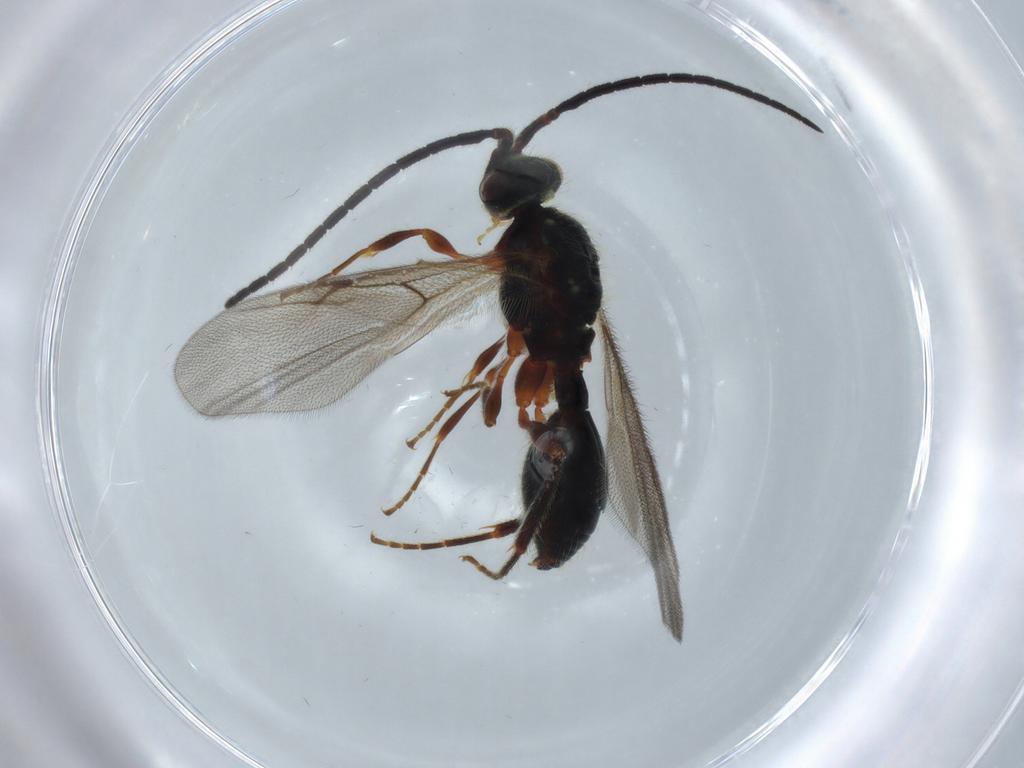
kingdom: Animalia
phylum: Arthropoda
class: Insecta
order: Hymenoptera
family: Diapriidae
